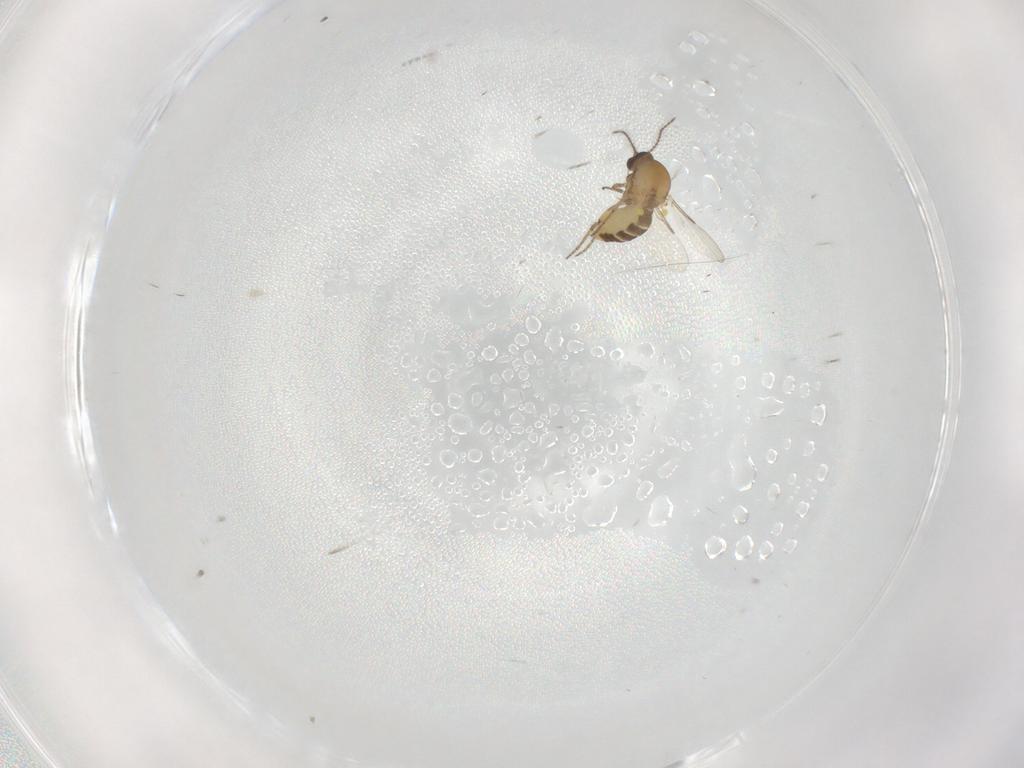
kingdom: Animalia
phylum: Arthropoda
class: Insecta
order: Diptera
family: Ceratopogonidae
